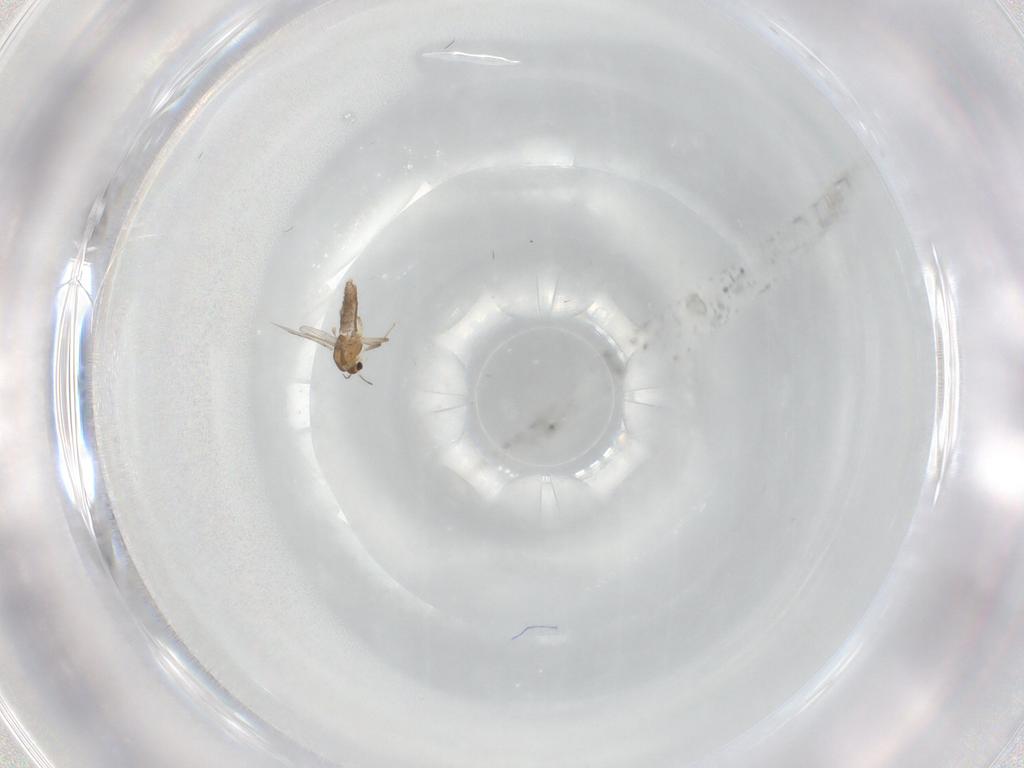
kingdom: Animalia
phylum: Arthropoda
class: Insecta
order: Diptera
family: Chironomidae
